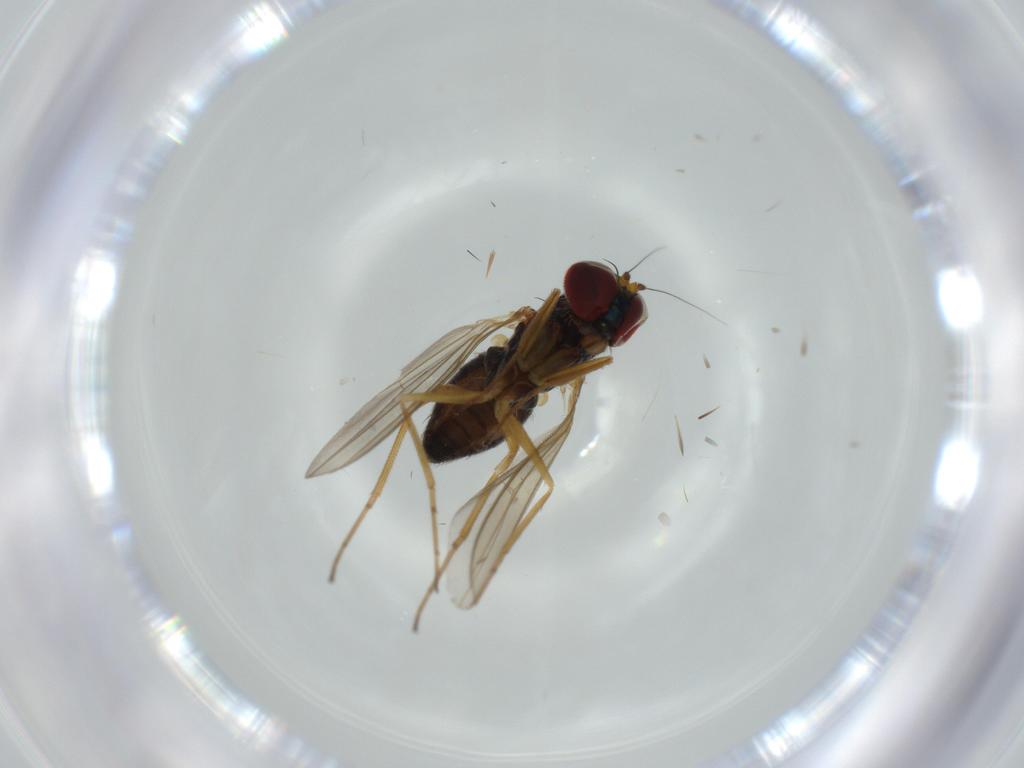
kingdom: Animalia
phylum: Arthropoda
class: Insecta
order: Diptera
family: Dolichopodidae
